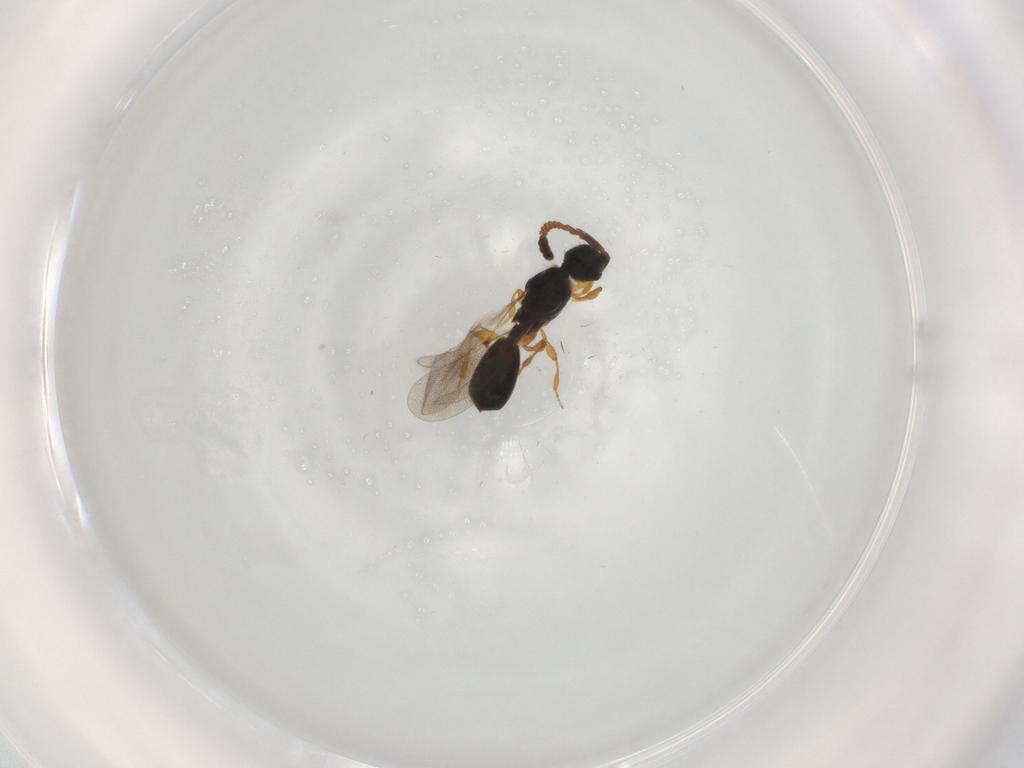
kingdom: Animalia
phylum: Arthropoda
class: Insecta
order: Hymenoptera
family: Diapriidae
